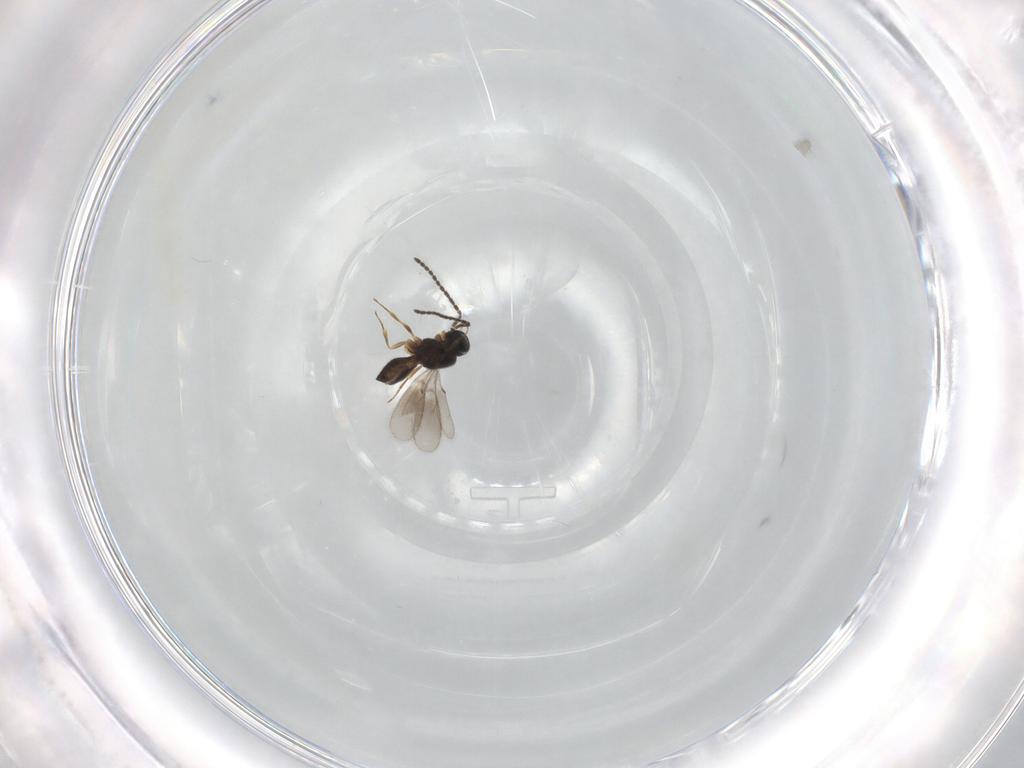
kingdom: Animalia
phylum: Arthropoda
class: Insecta
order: Hymenoptera
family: Scelionidae
